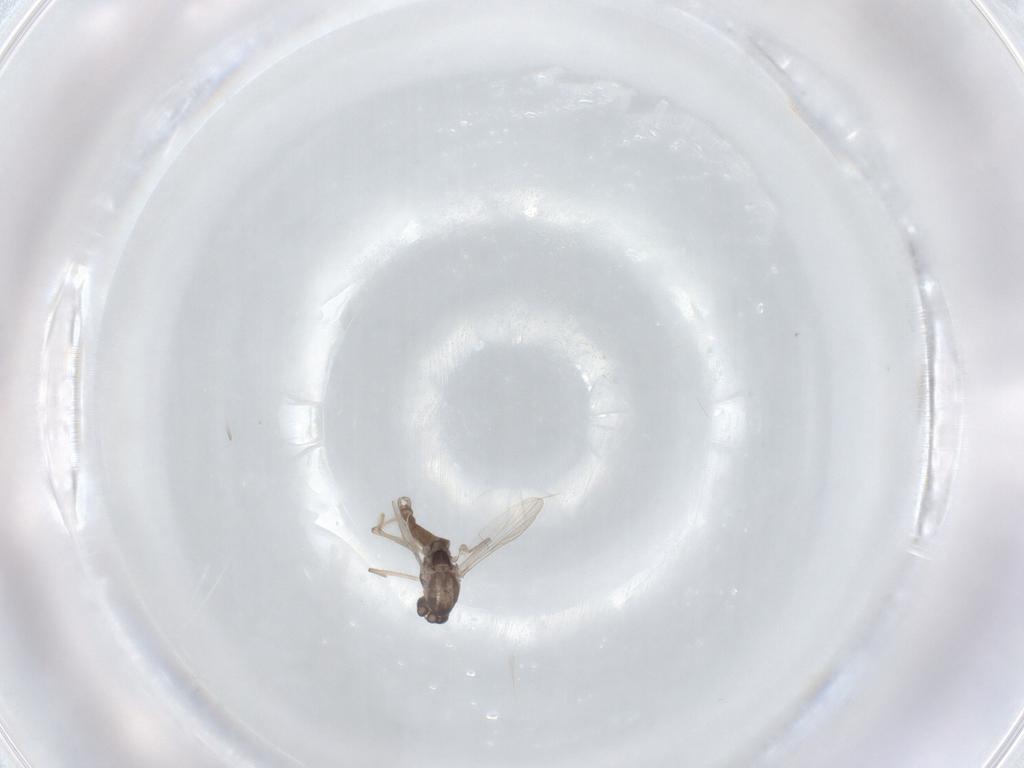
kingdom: Animalia
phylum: Arthropoda
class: Insecta
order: Diptera
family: Chironomidae
